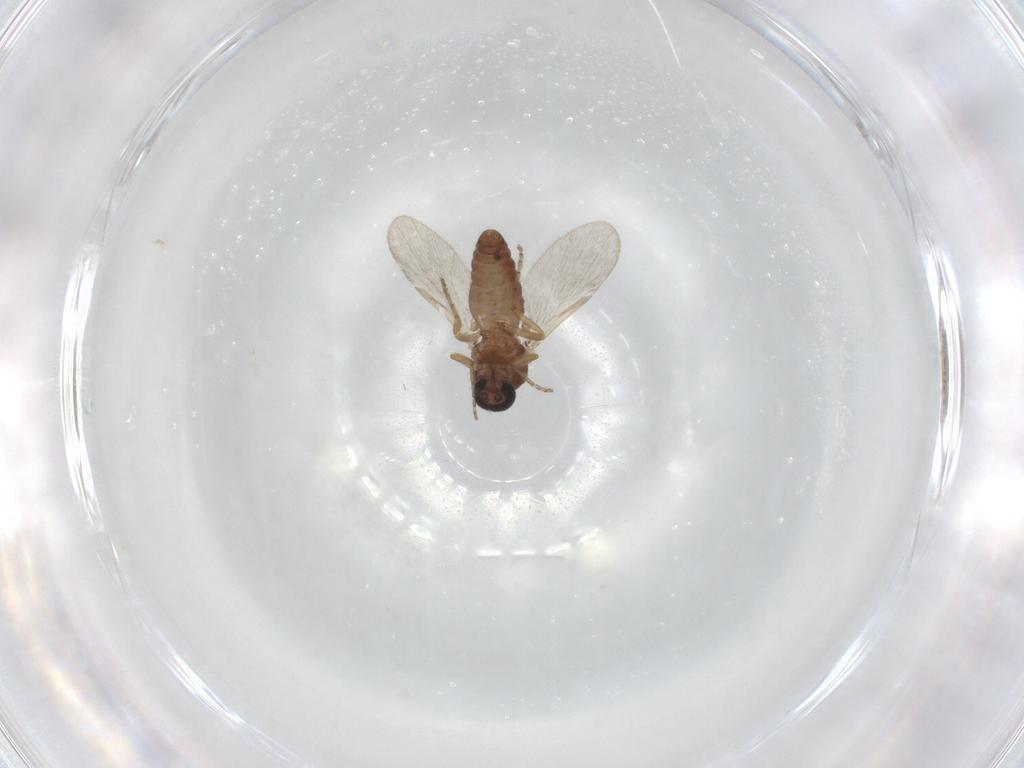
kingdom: Animalia
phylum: Arthropoda
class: Insecta
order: Diptera
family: Ceratopogonidae
